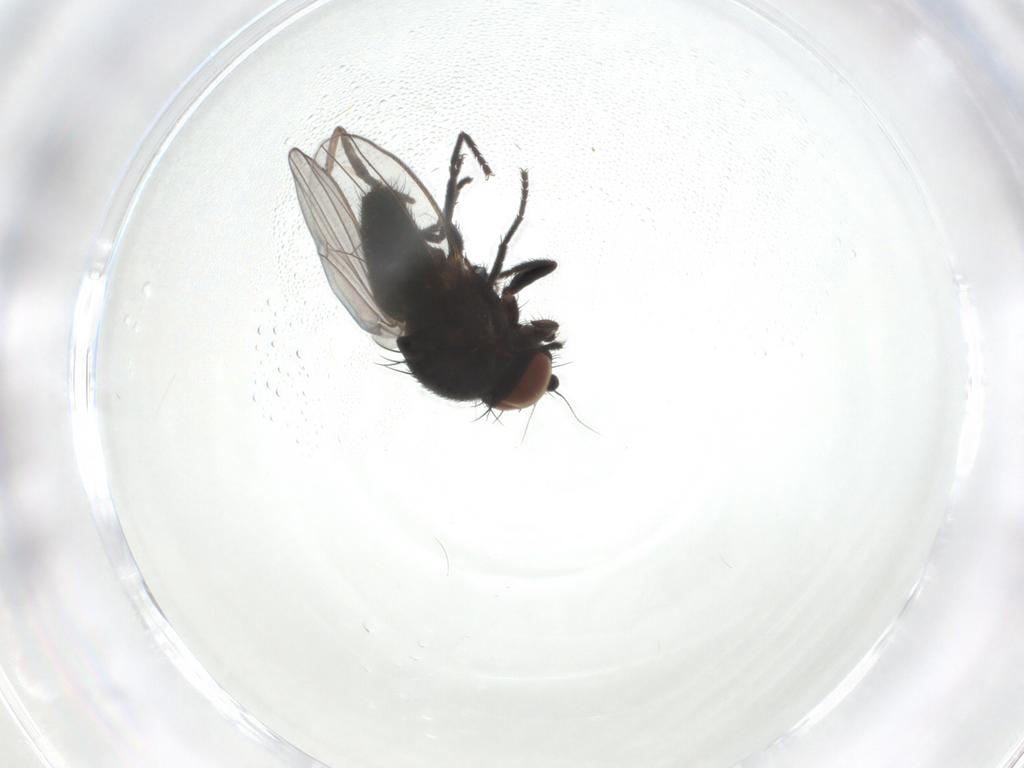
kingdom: Animalia
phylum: Arthropoda
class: Insecta
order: Diptera
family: Milichiidae
